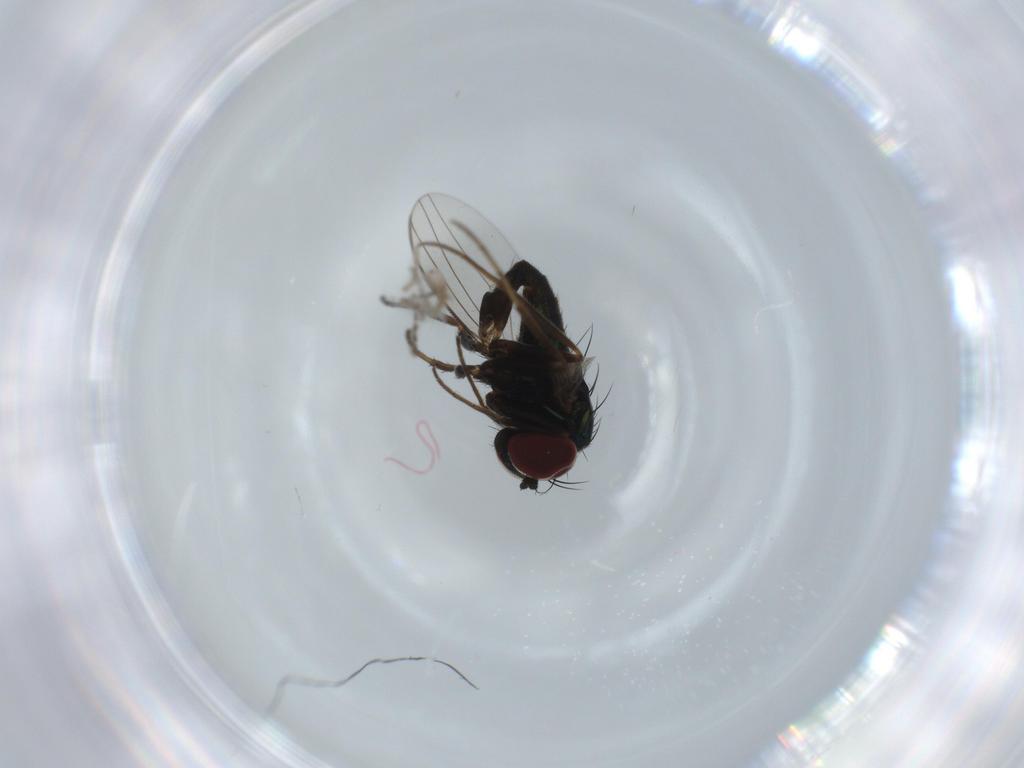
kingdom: Animalia
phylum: Arthropoda
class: Insecta
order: Diptera
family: Dolichopodidae
